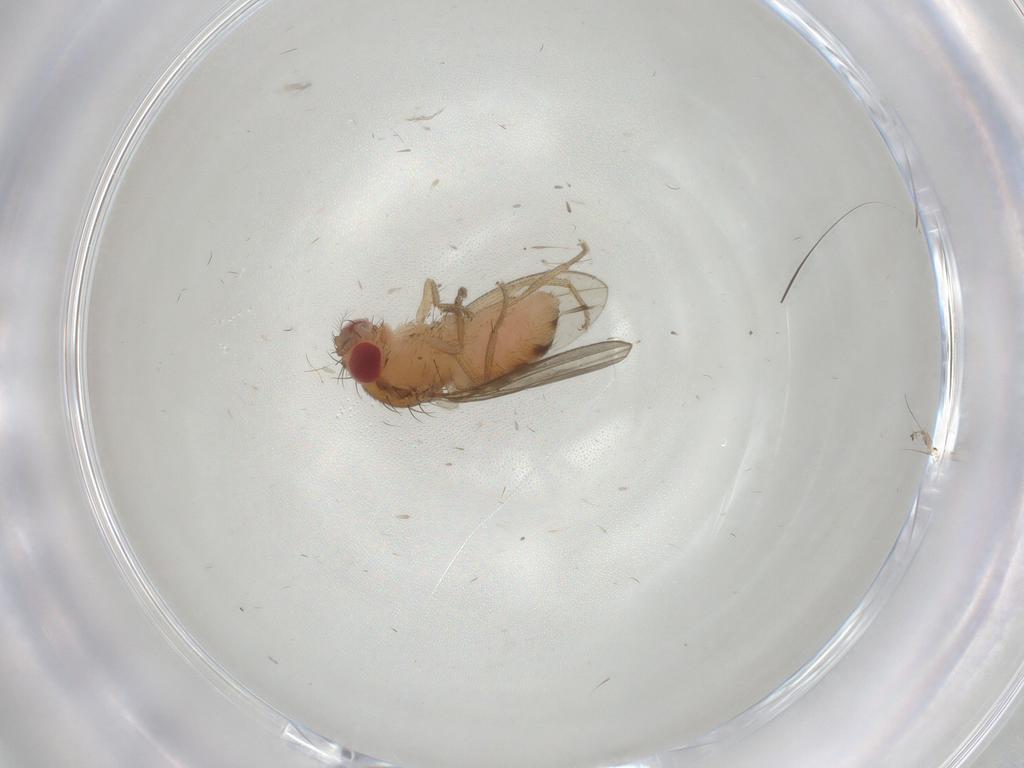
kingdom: Animalia
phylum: Arthropoda
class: Insecta
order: Diptera
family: Drosophilidae
